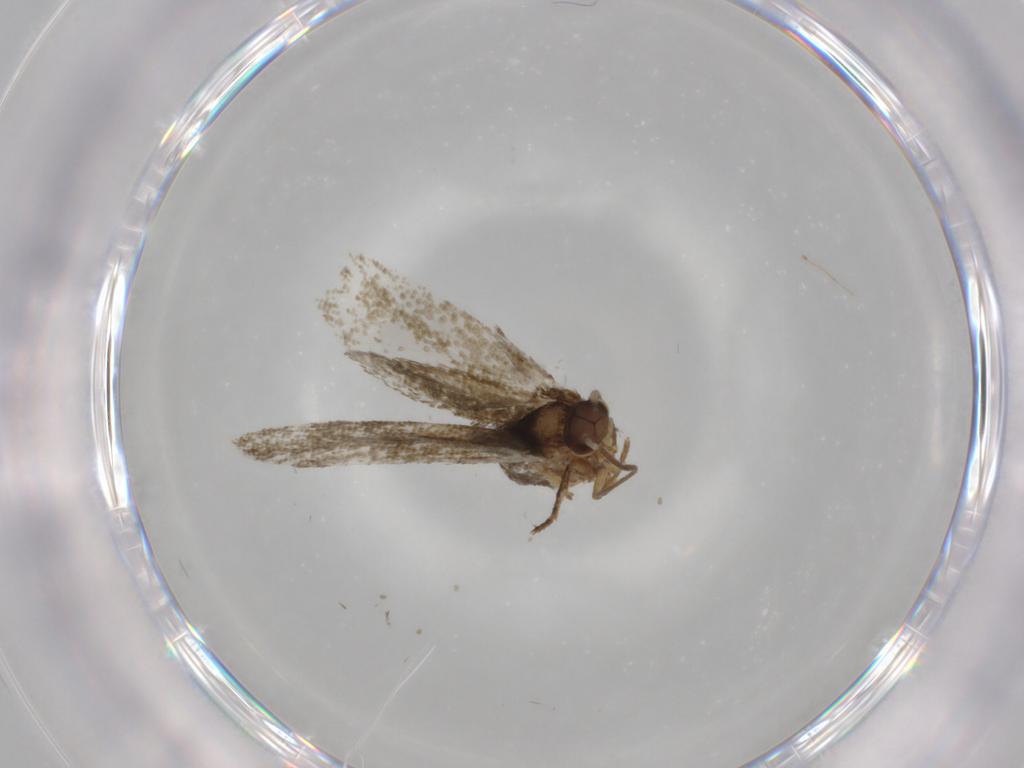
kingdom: Animalia
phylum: Arthropoda
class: Insecta
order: Lepidoptera
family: Tineidae
